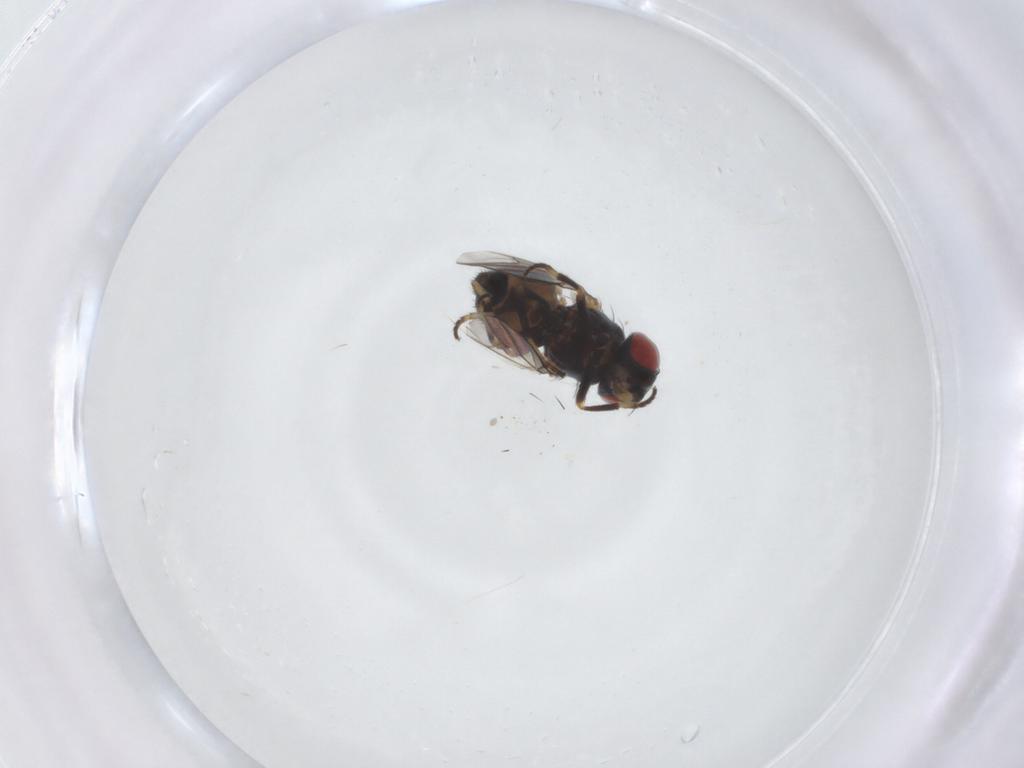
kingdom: Animalia
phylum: Arthropoda
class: Insecta
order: Diptera
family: Chamaemyiidae
